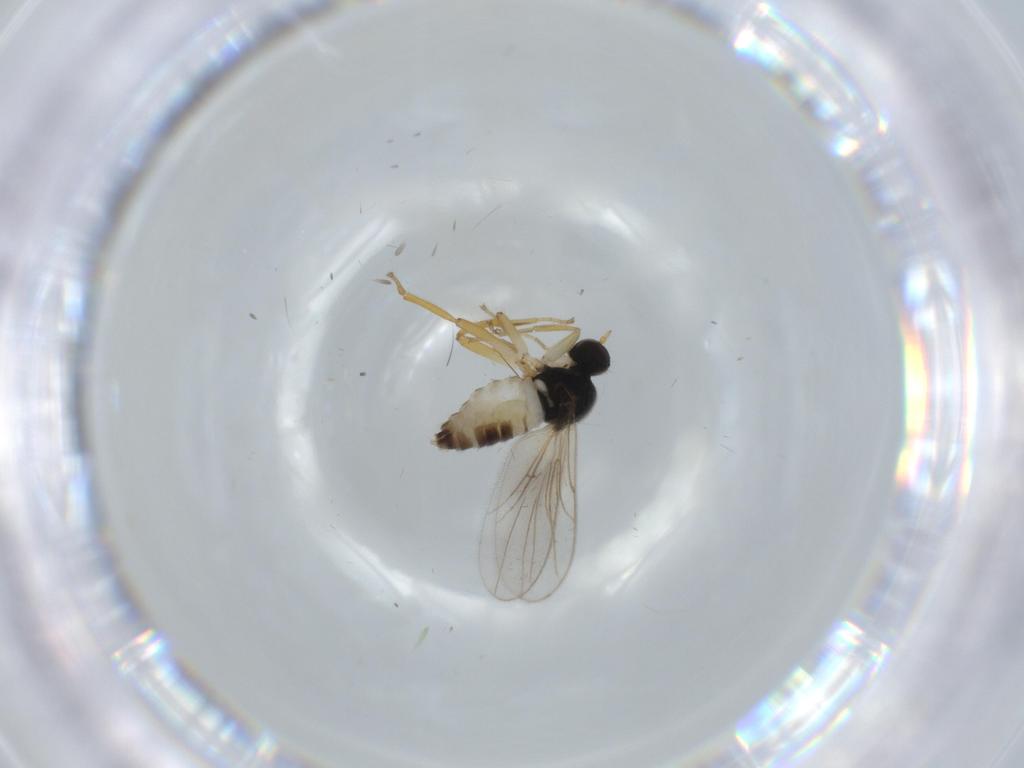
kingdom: Animalia
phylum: Arthropoda
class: Insecta
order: Diptera
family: Hybotidae
